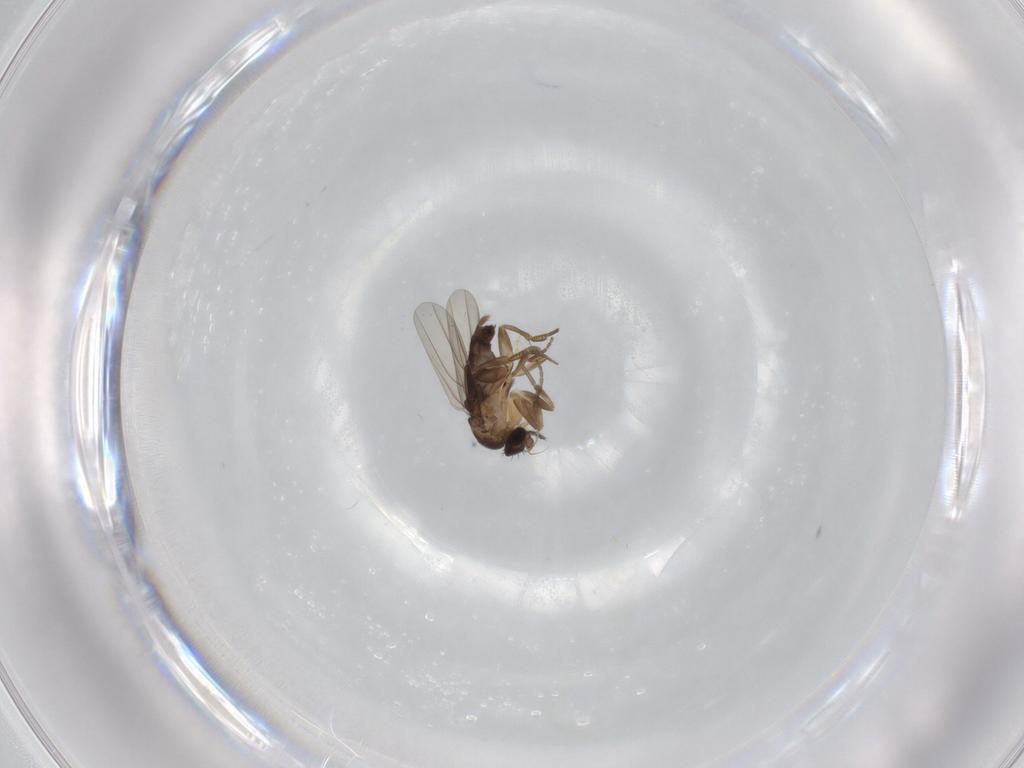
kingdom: Animalia
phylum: Arthropoda
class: Insecta
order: Diptera
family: Phoridae
